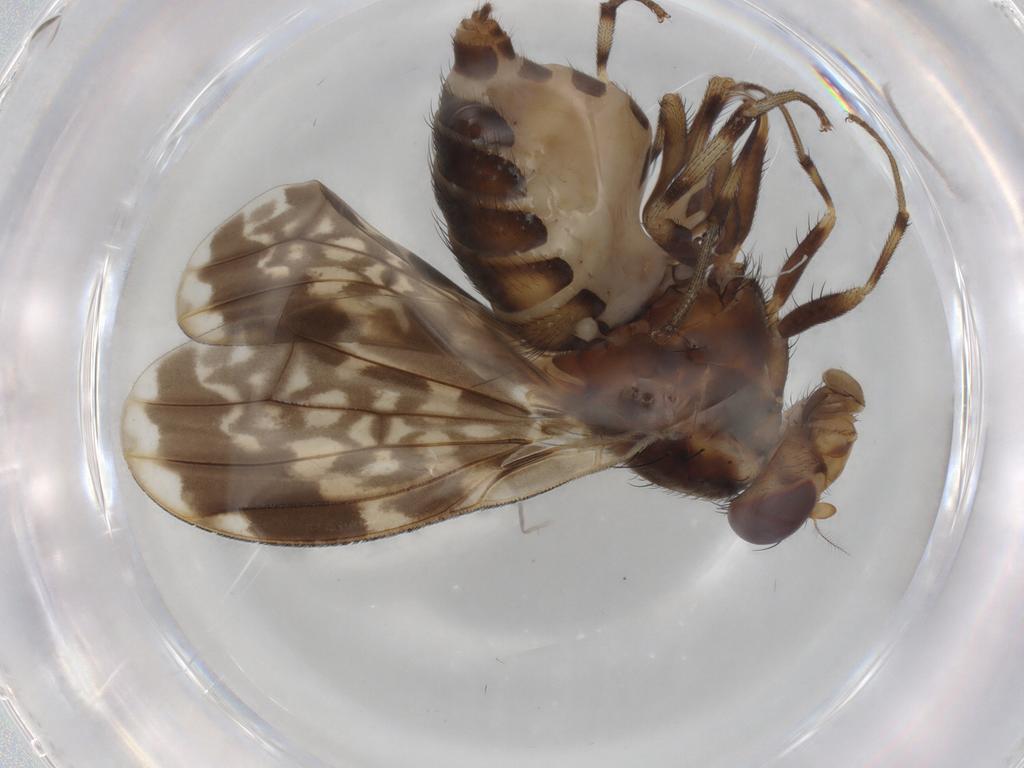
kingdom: Animalia
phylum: Arthropoda
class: Insecta
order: Diptera
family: Psychodidae
